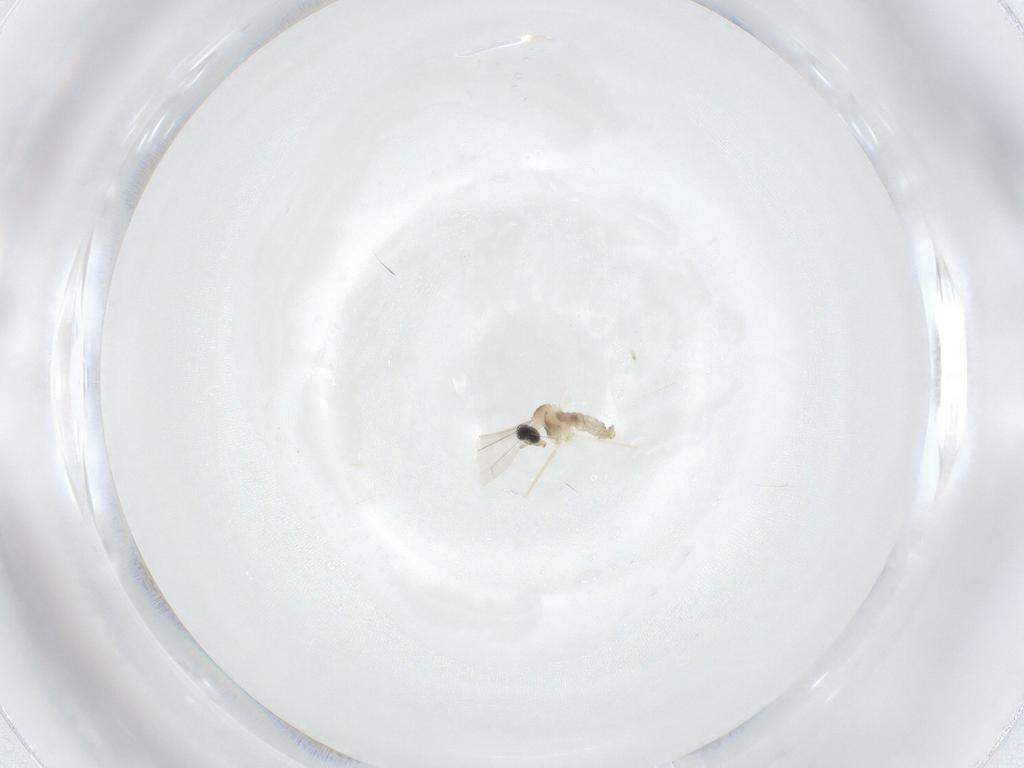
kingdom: Animalia
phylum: Arthropoda
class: Insecta
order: Diptera
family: Cecidomyiidae
